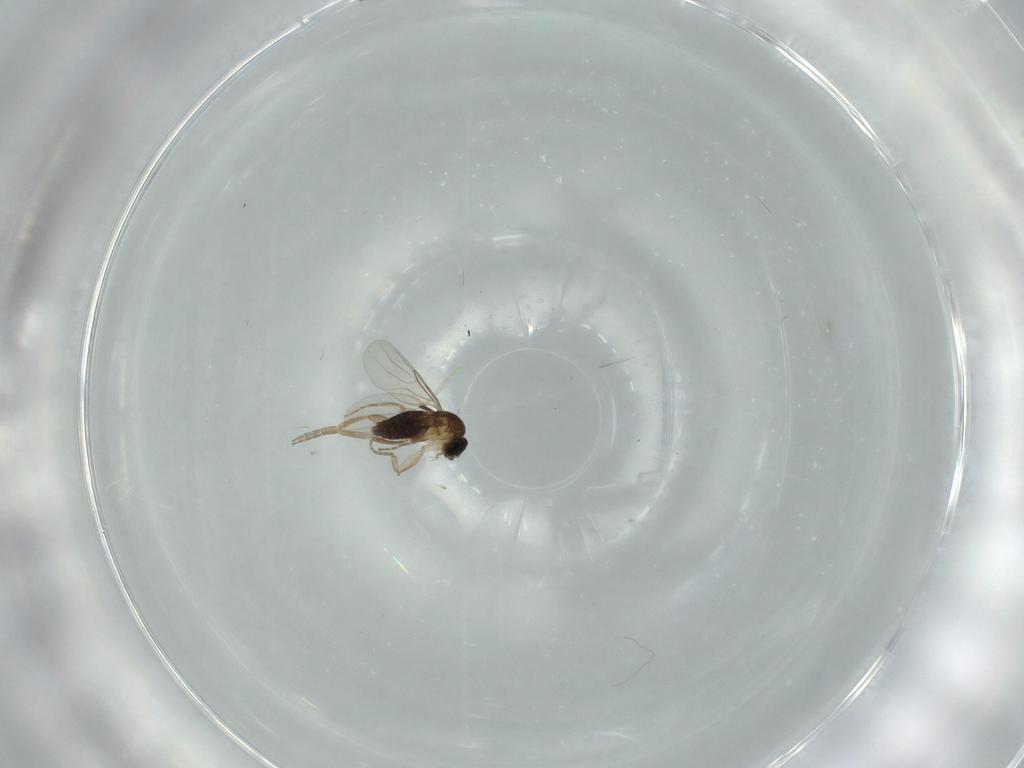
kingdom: Animalia
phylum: Arthropoda
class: Insecta
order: Diptera
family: Phoridae
